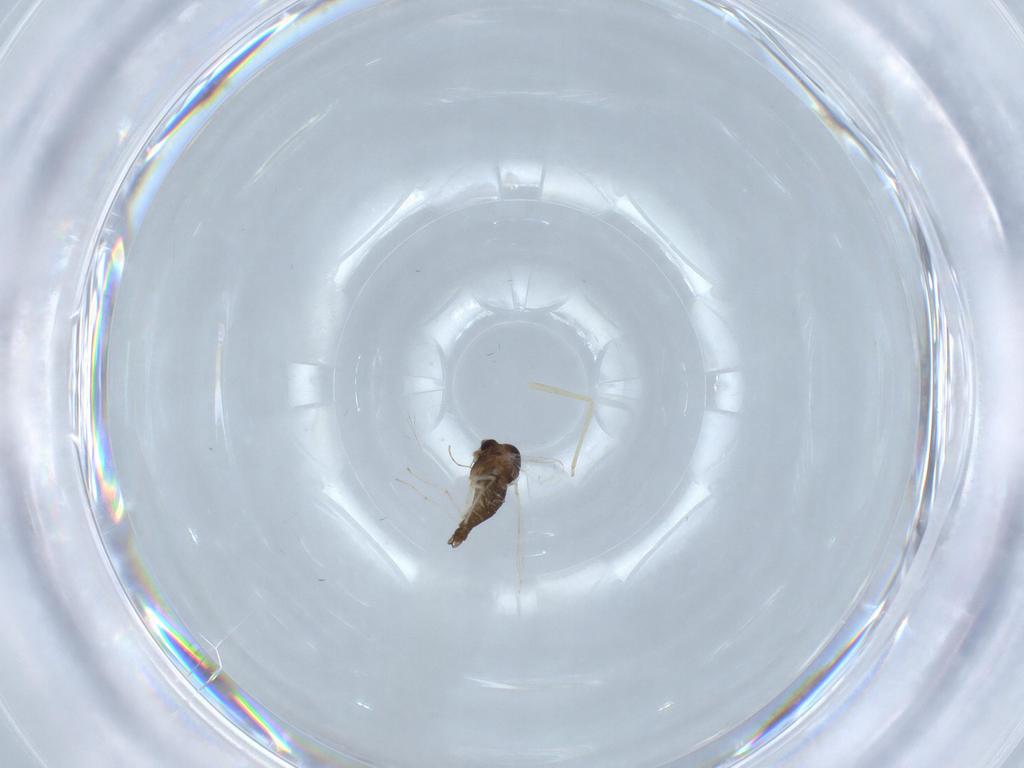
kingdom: Animalia
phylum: Arthropoda
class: Insecta
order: Diptera
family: Chironomidae
